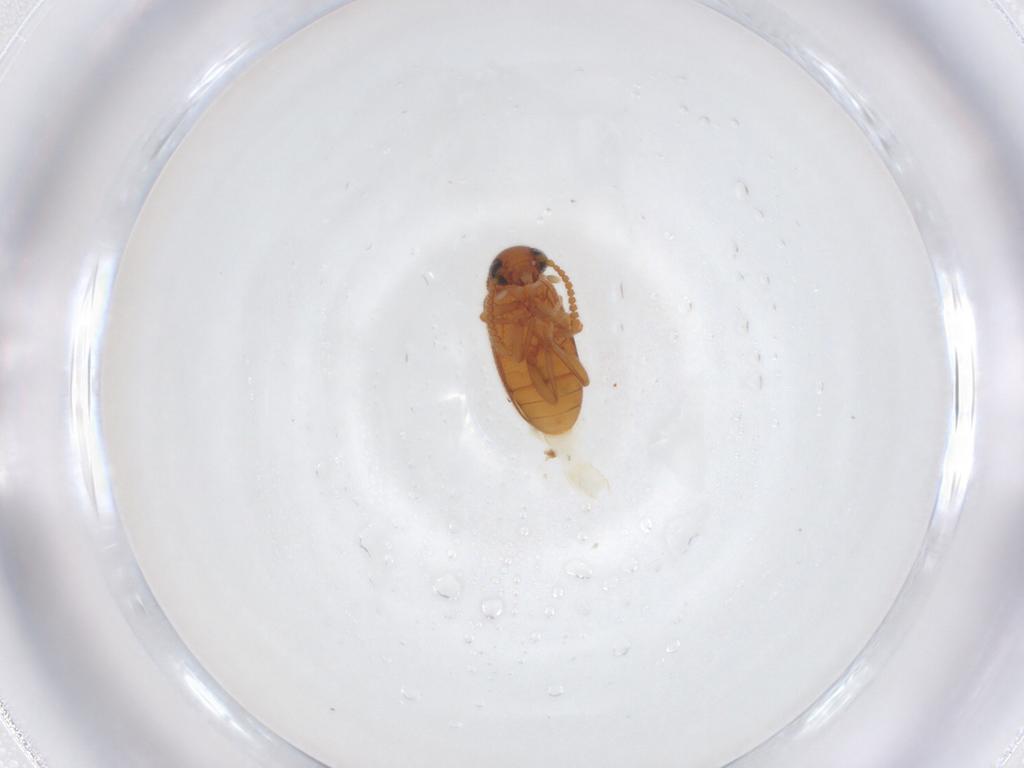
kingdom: Animalia
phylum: Arthropoda
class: Insecta
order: Coleoptera
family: Aderidae
